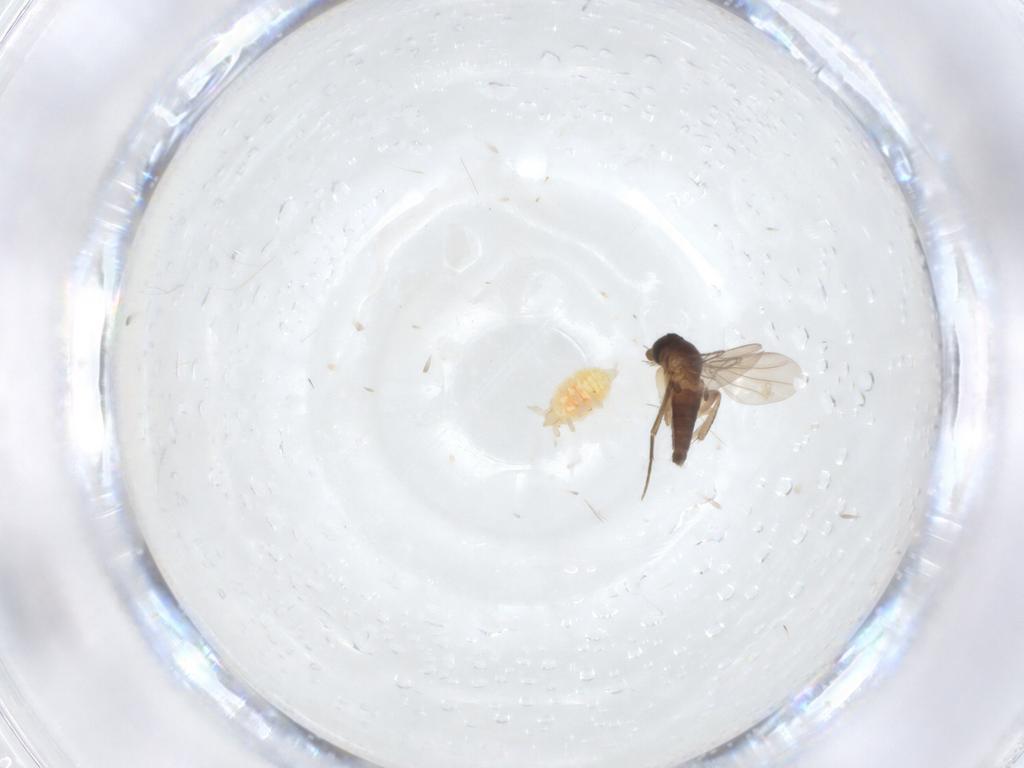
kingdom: Animalia
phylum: Arthropoda
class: Insecta
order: Diptera
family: Phoridae
